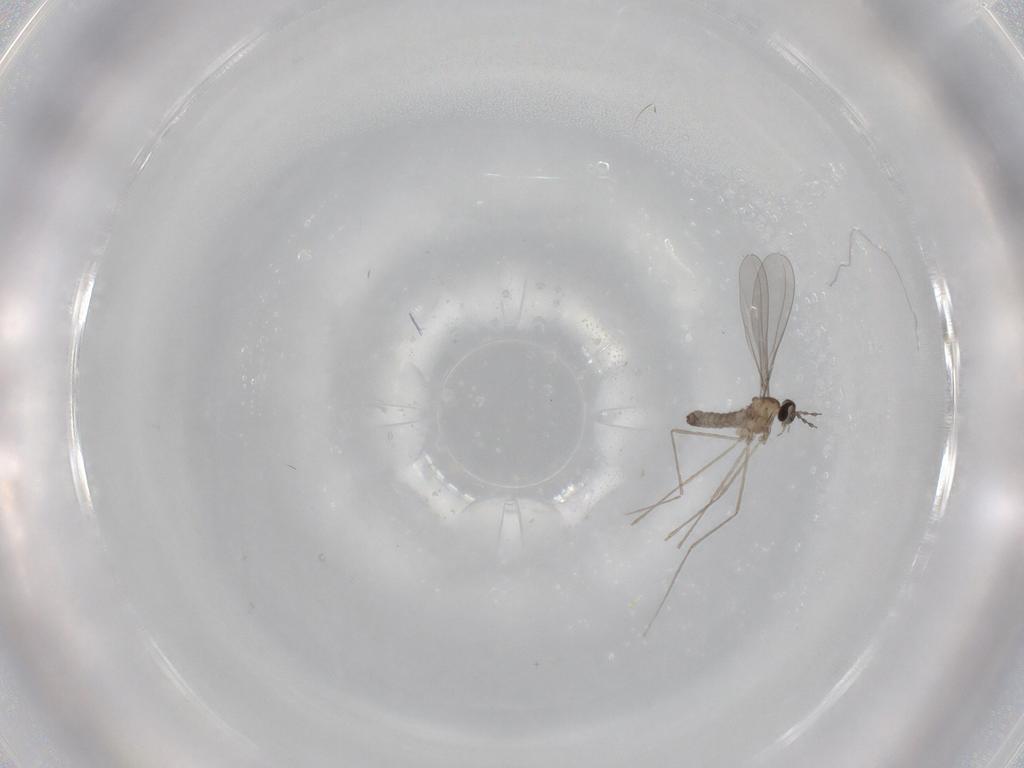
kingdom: Animalia
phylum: Arthropoda
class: Insecta
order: Diptera
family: Cecidomyiidae
